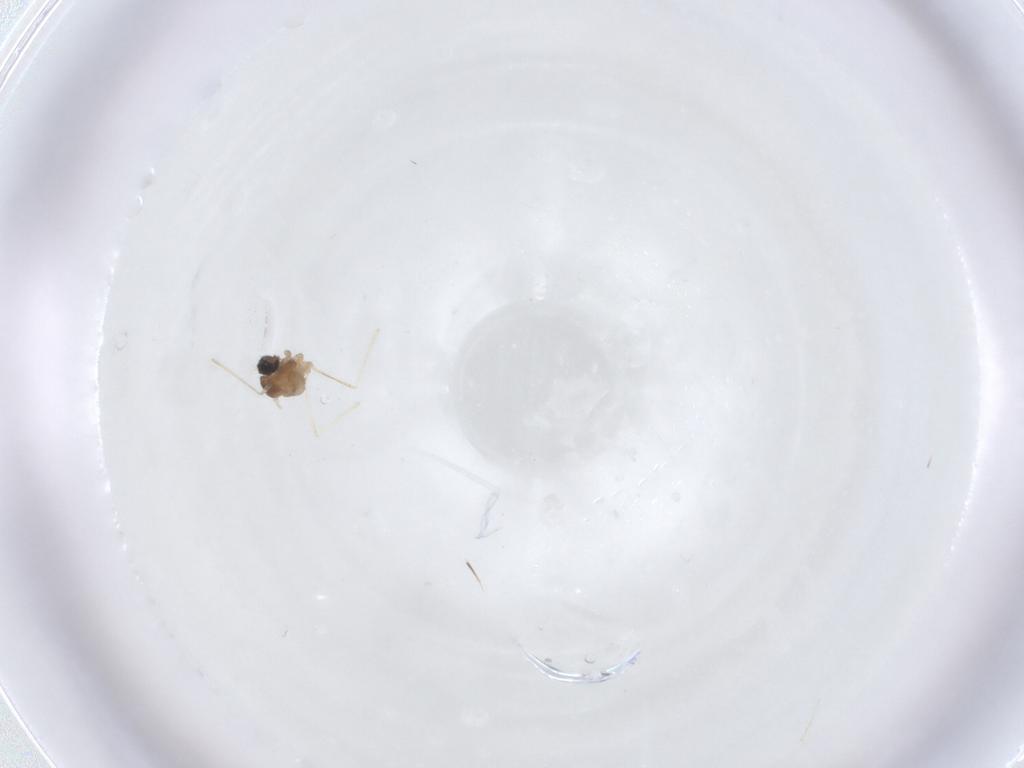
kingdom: Animalia
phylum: Arthropoda
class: Insecta
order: Diptera
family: Cecidomyiidae
